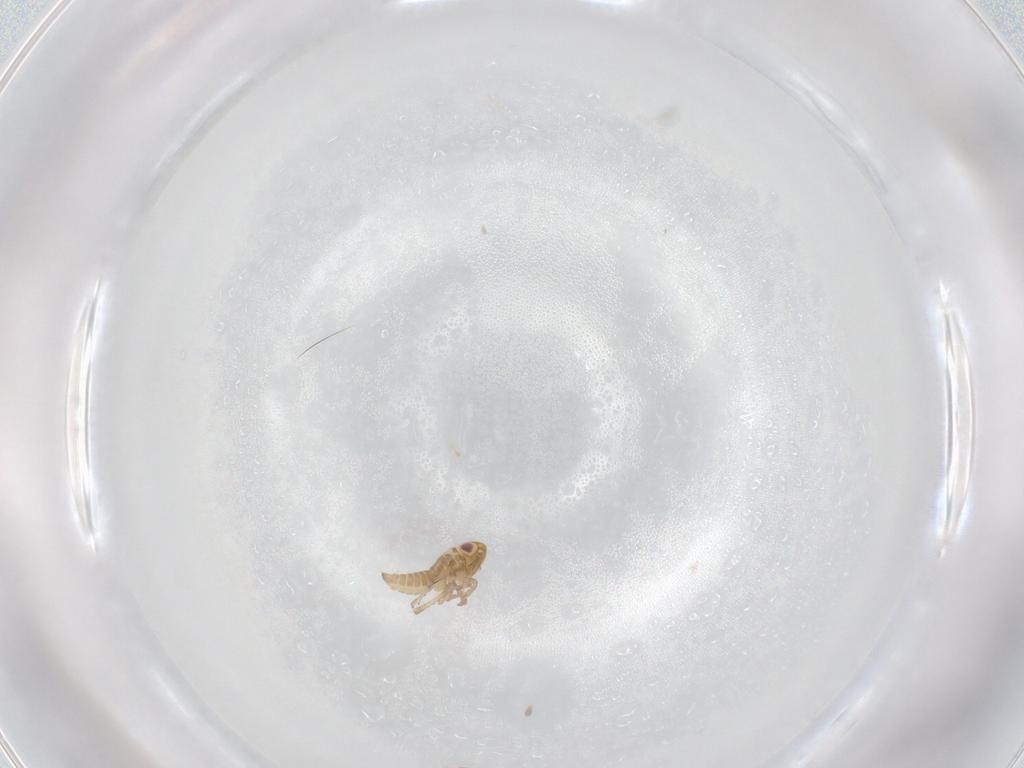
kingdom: Animalia
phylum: Arthropoda
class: Insecta
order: Hemiptera
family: Cicadellidae
